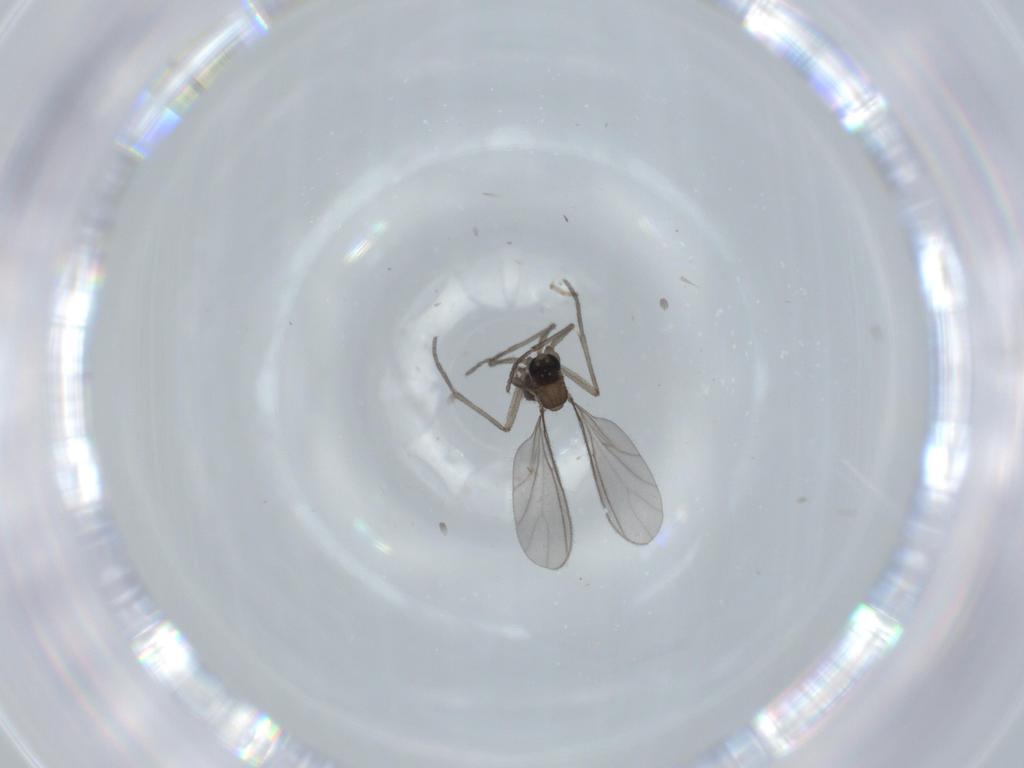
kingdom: Animalia
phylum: Arthropoda
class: Insecta
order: Diptera
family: Sciaridae
